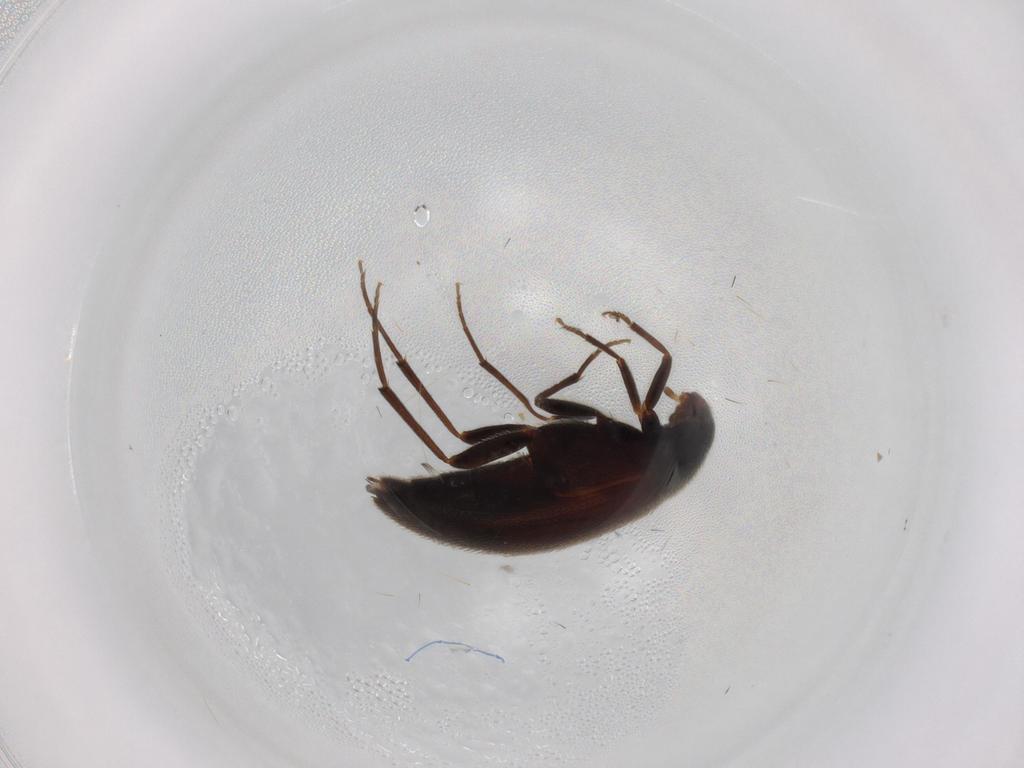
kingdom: Animalia
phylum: Arthropoda
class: Insecta
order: Coleoptera
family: Melandryidae
